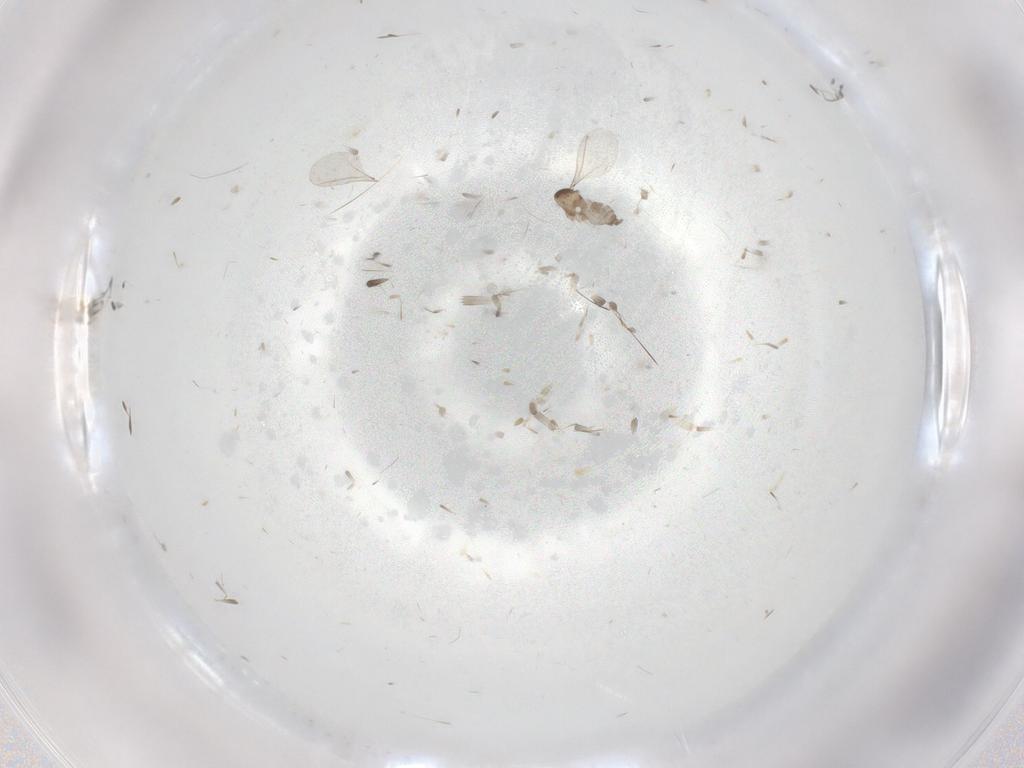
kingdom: Animalia
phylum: Arthropoda
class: Insecta
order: Diptera
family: Cecidomyiidae
